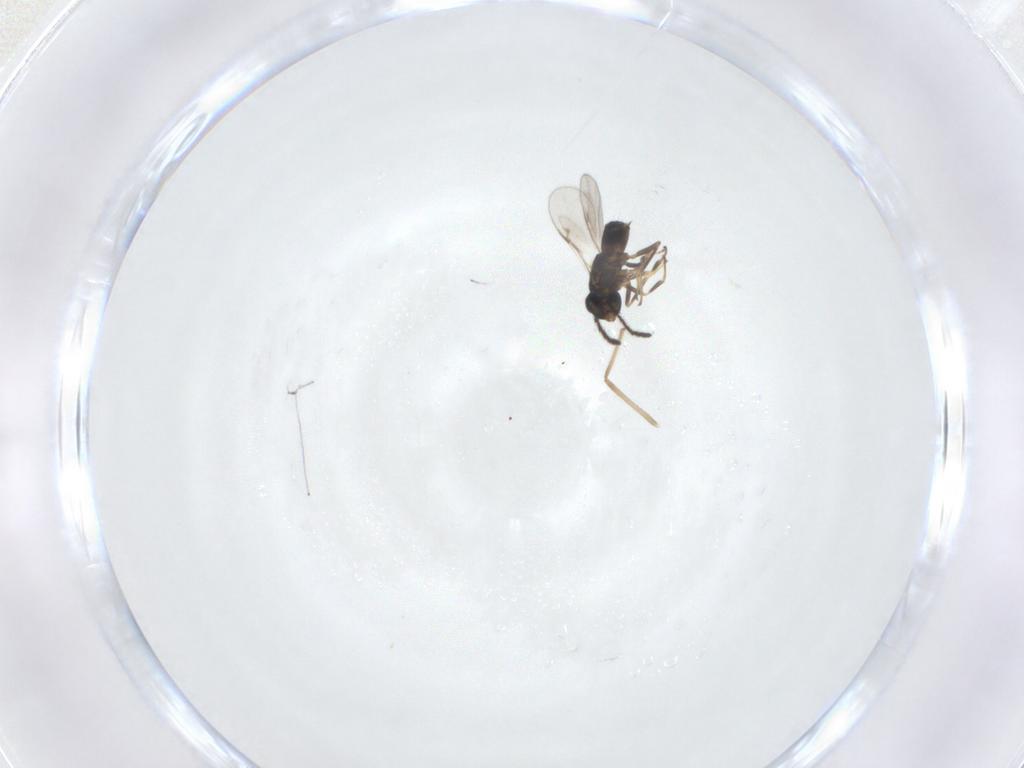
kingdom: Animalia
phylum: Arthropoda
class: Insecta
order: Hymenoptera
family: Encyrtidae
